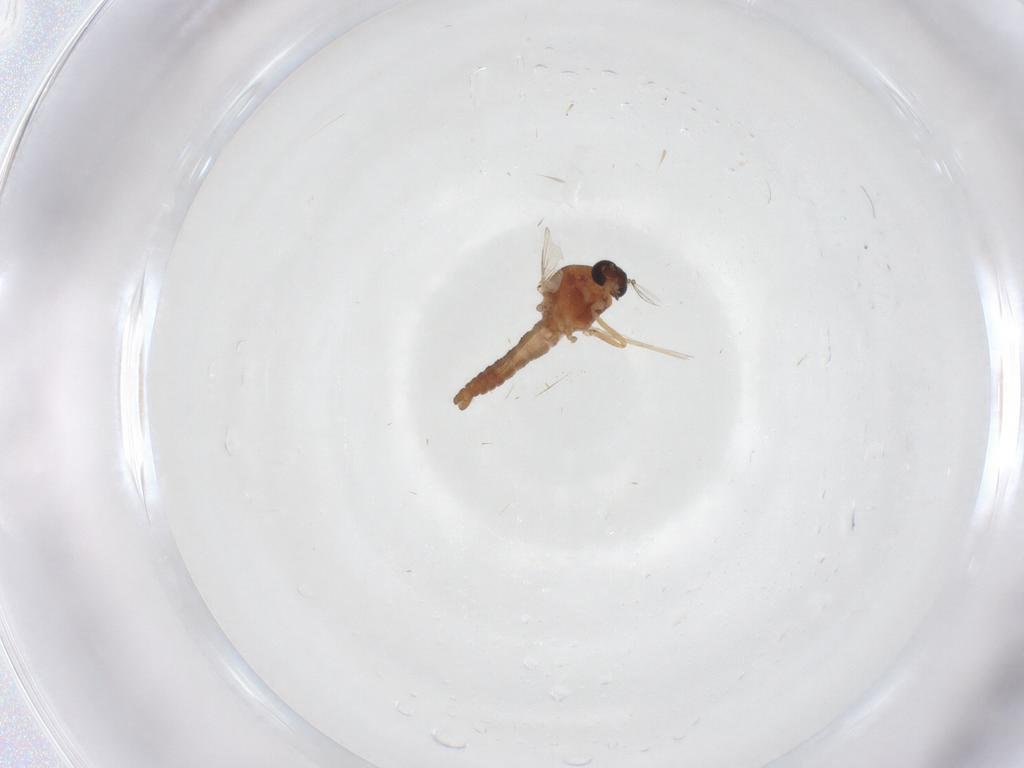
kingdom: Animalia
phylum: Arthropoda
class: Insecta
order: Diptera
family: Ceratopogonidae
